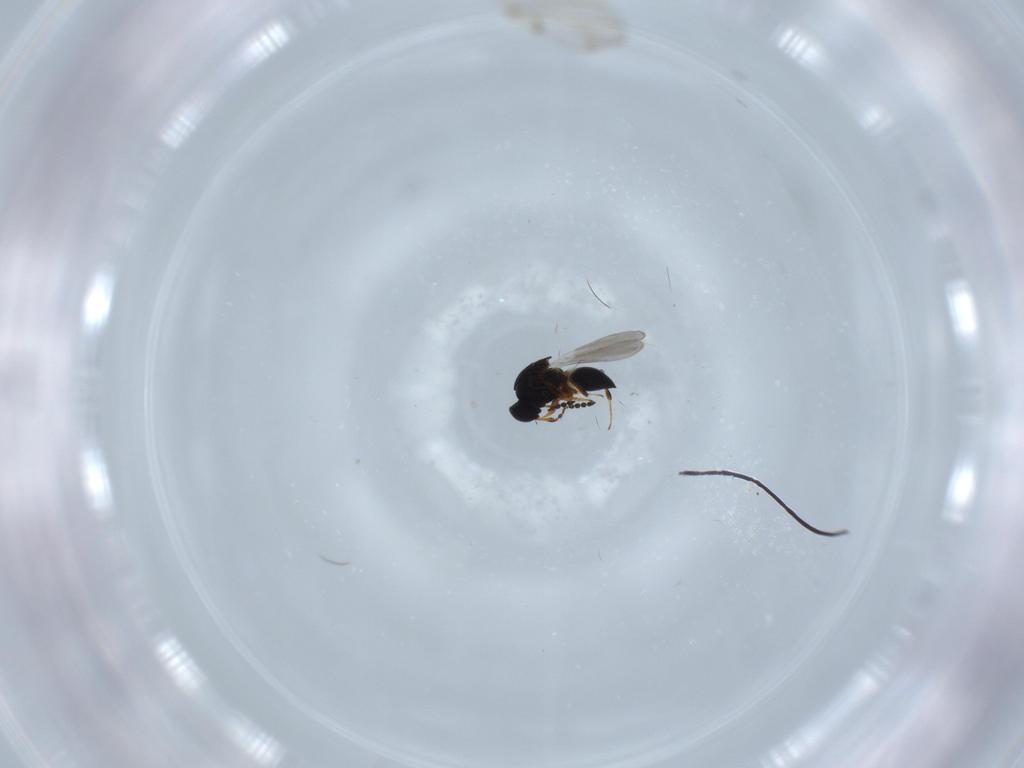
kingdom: Animalia
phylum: Arthropoda
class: Insecta
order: Hymenoptera
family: Platygastridae
